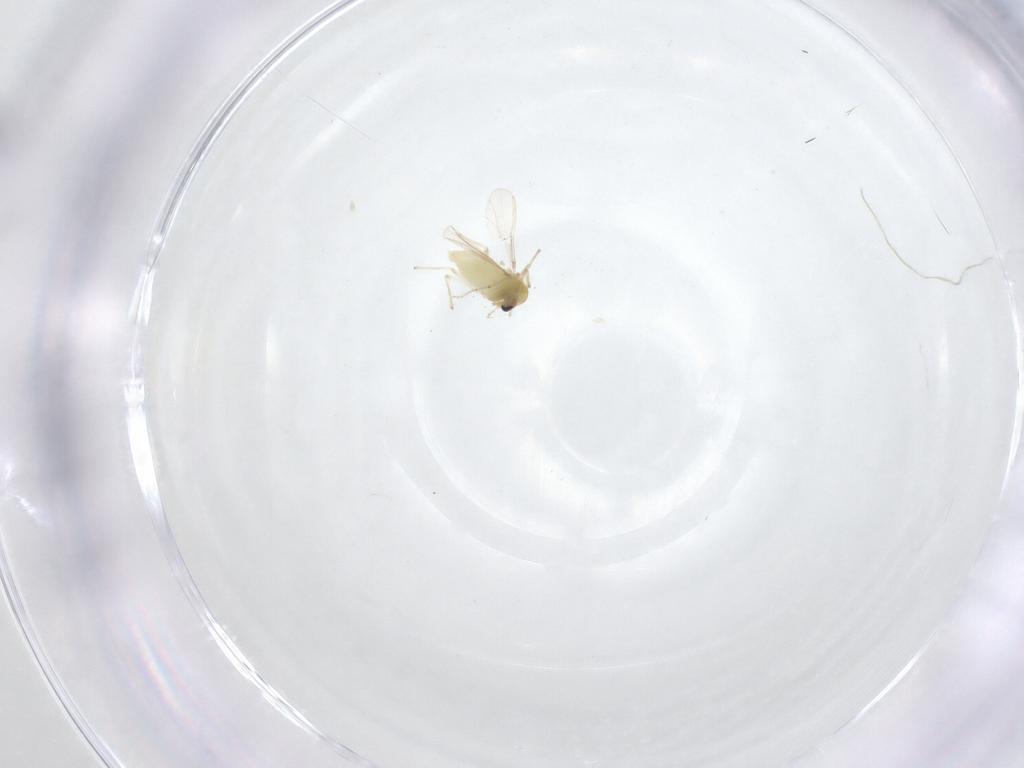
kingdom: Animalia
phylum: Arthropoda
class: Insecta
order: Diptera
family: Chironomidae
